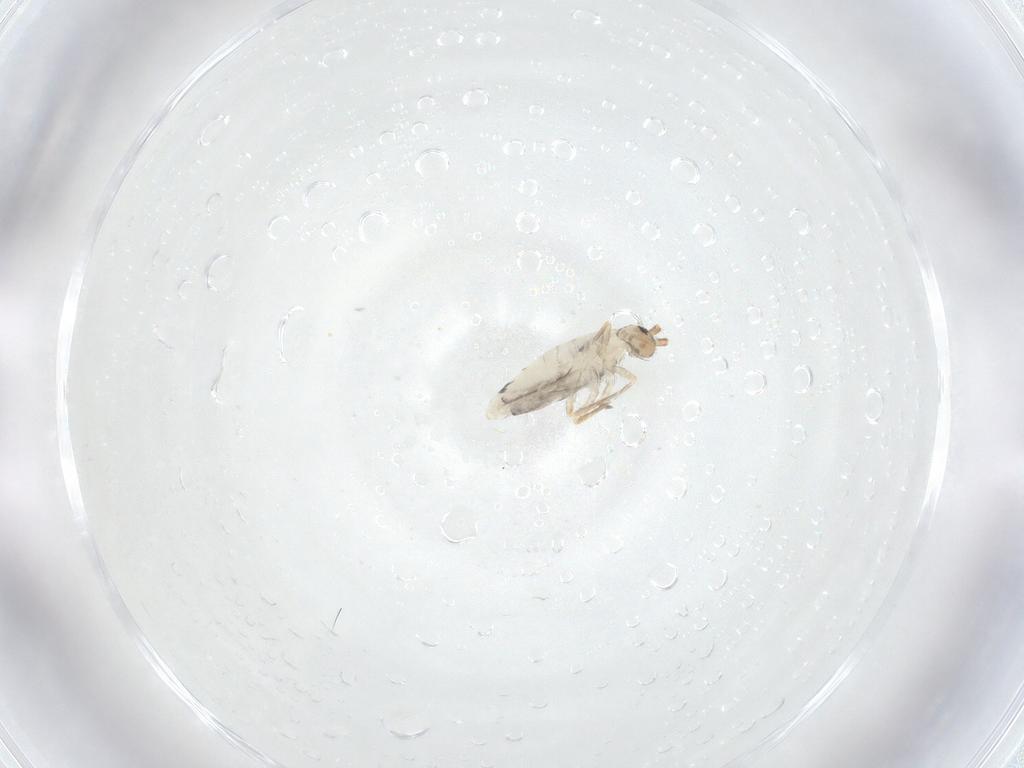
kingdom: Animalia
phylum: Arthropoda
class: Collembola
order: Entomobryomorpha
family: Entomobryidae
